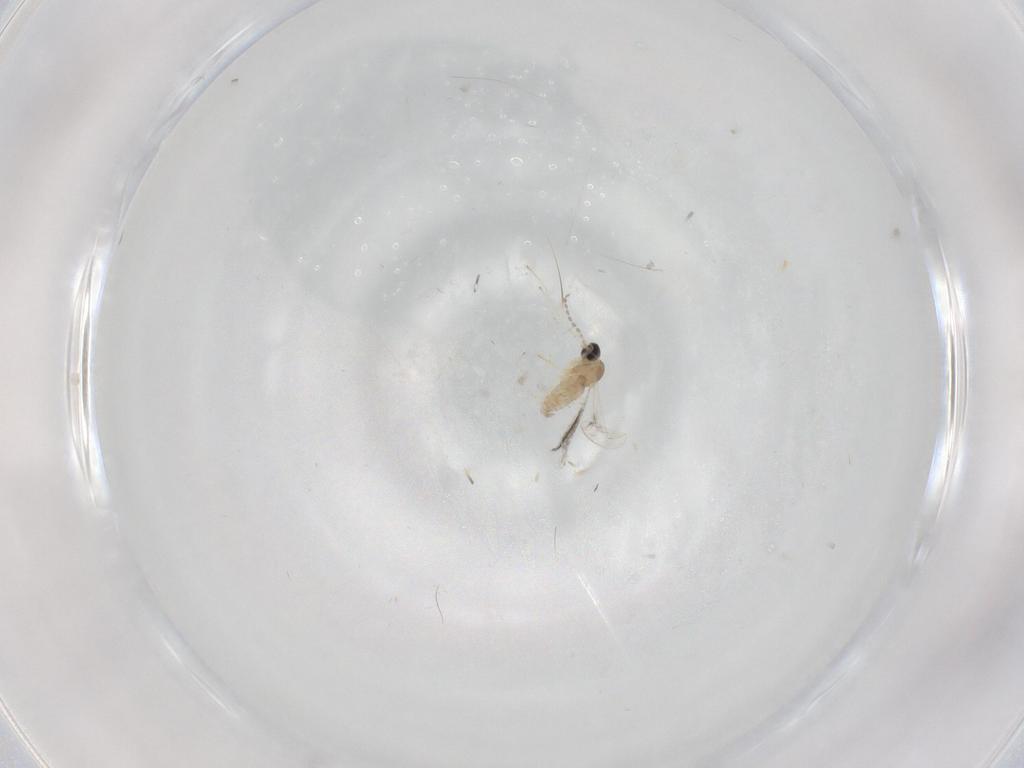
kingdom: Animalia
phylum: Arthropoda
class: Insecta
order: Diptera
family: Cecidomyiidae
